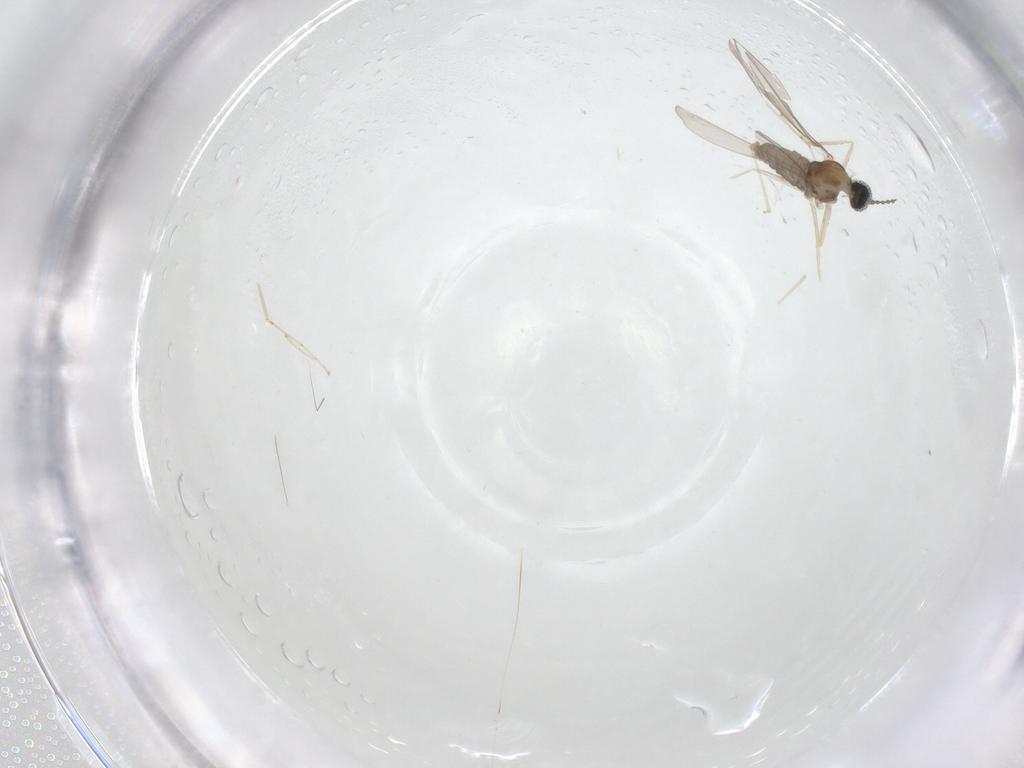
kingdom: Animalia
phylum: Arthropoda
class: Insecta
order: Diptera
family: Cecidomyiidae
